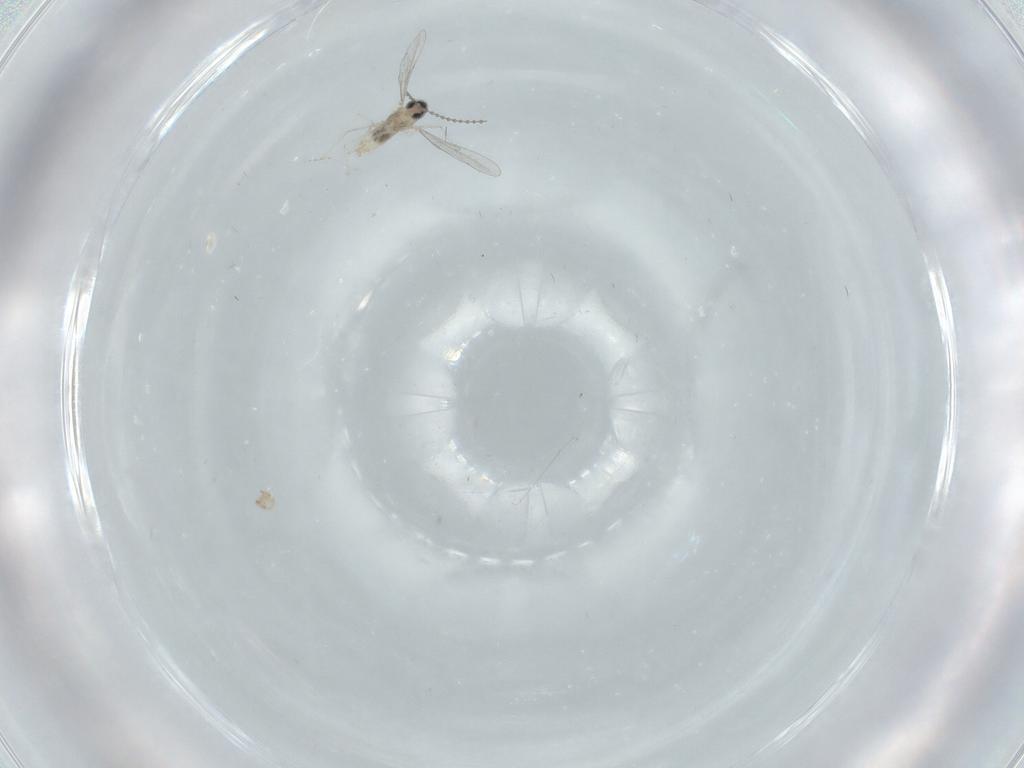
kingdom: Animalia
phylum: Arthropoda
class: Insecta
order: Diptera
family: Cecidomyiidae
